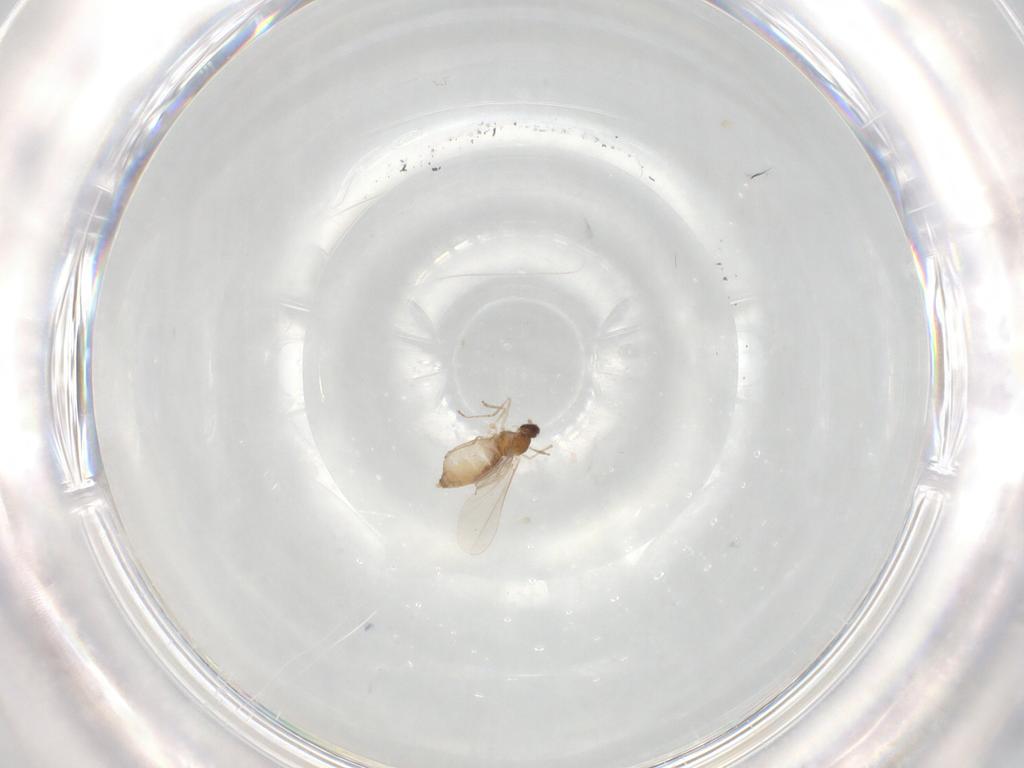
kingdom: Animalia
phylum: Arthropoda
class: Insecta
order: Diptera
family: Cecidomyiidae
